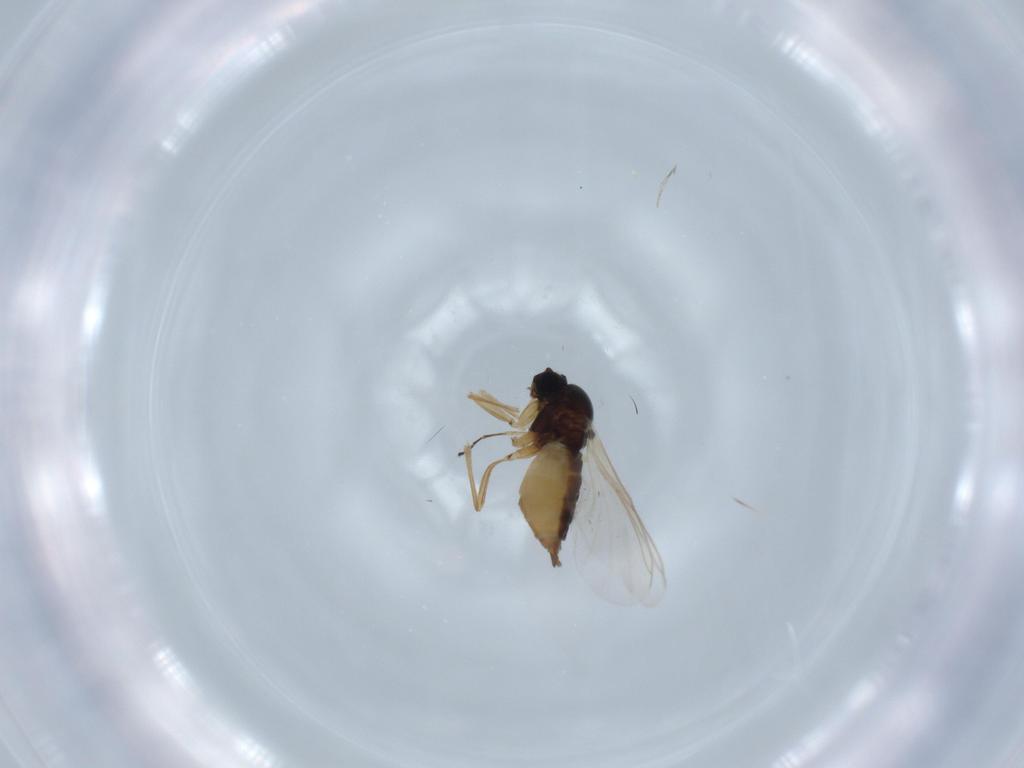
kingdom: Animalia
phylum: Arthropoda
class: Insecta
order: Diptera
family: Sciaridae
